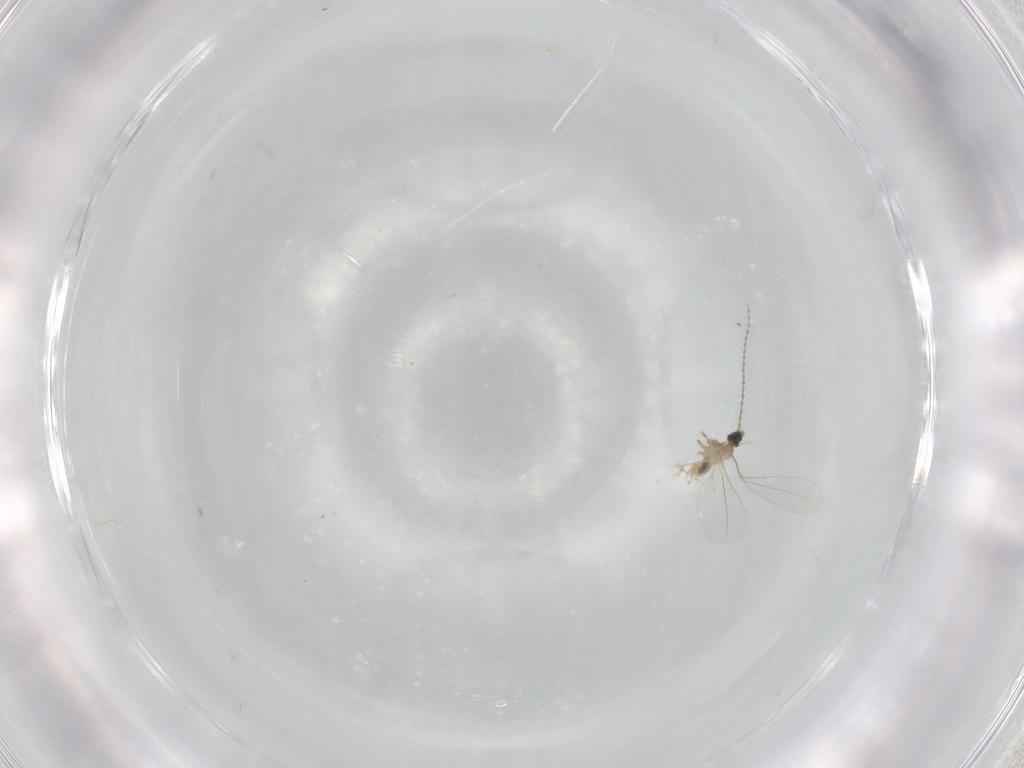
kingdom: Animalia
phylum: Arthropoda
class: Insecta
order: Diptera
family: Cecidomyiidae
